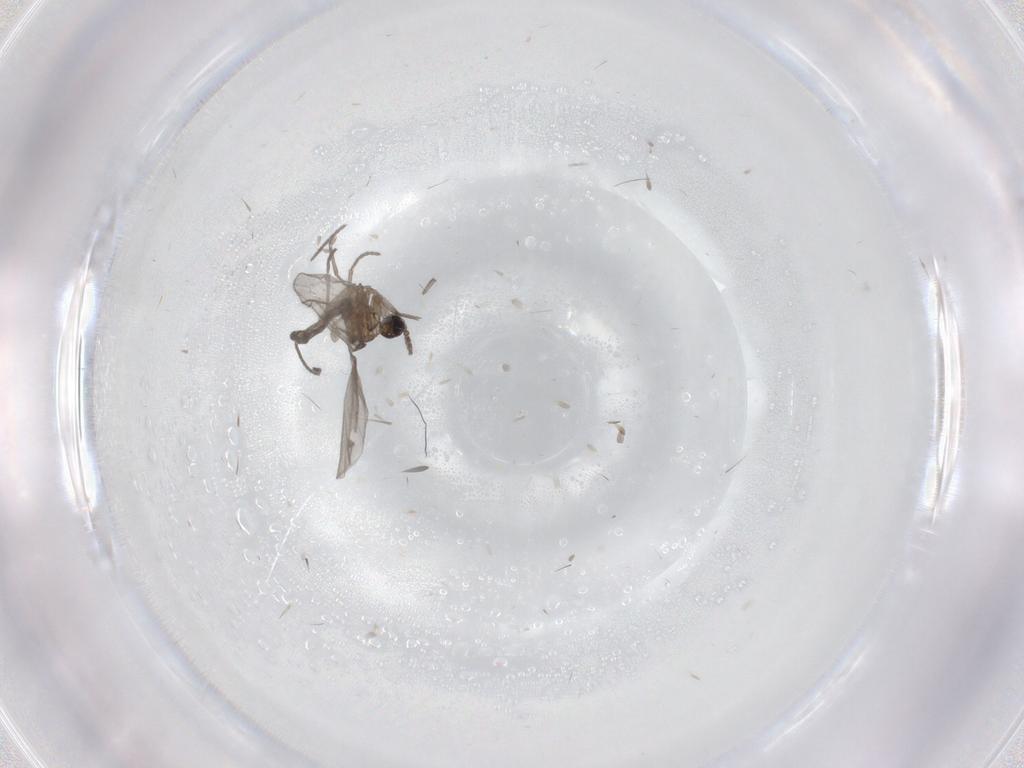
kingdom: Animalia
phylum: Arthropoda
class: Insecta
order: Diptera
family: Sciaridae
